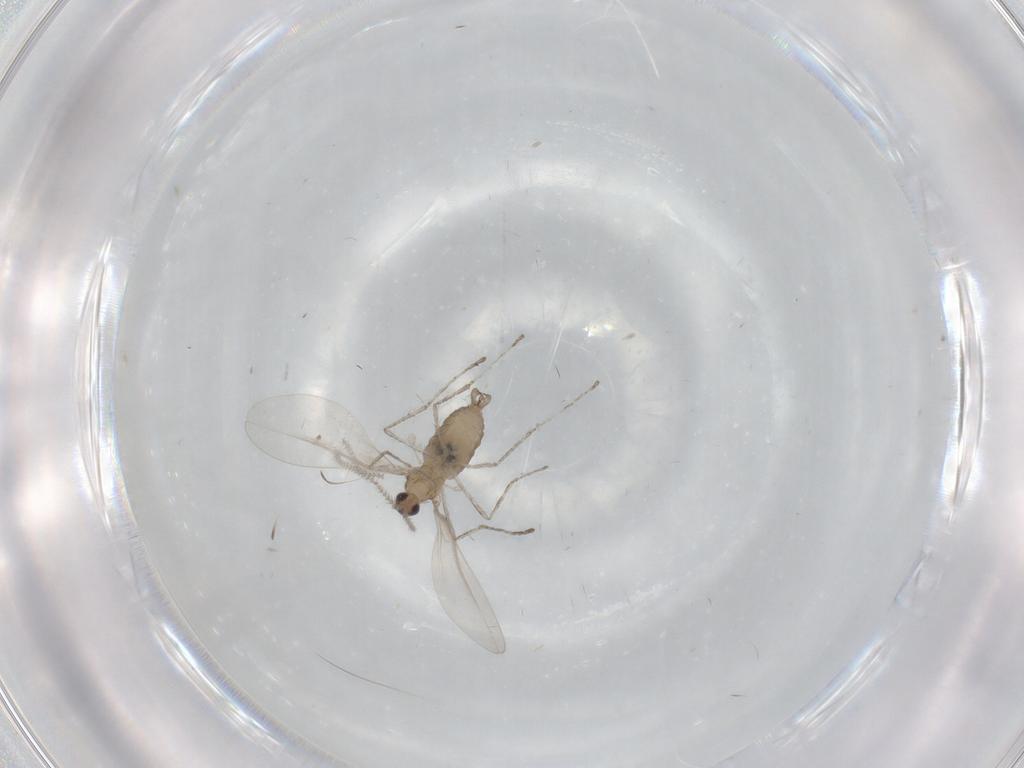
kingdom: Animalia
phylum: Arthropoda
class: Insecta
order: Diptera
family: Cecidomyiidae
